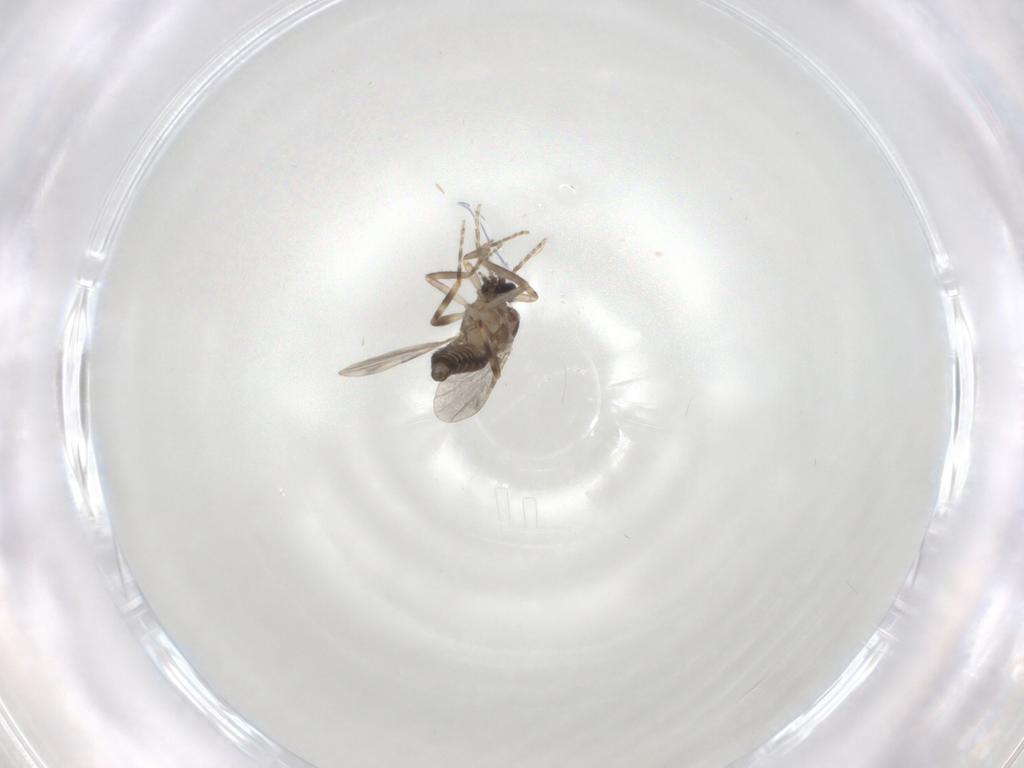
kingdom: Animalia
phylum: Arthropoda
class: Insecta
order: Diptera
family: Ceratopogonidae
